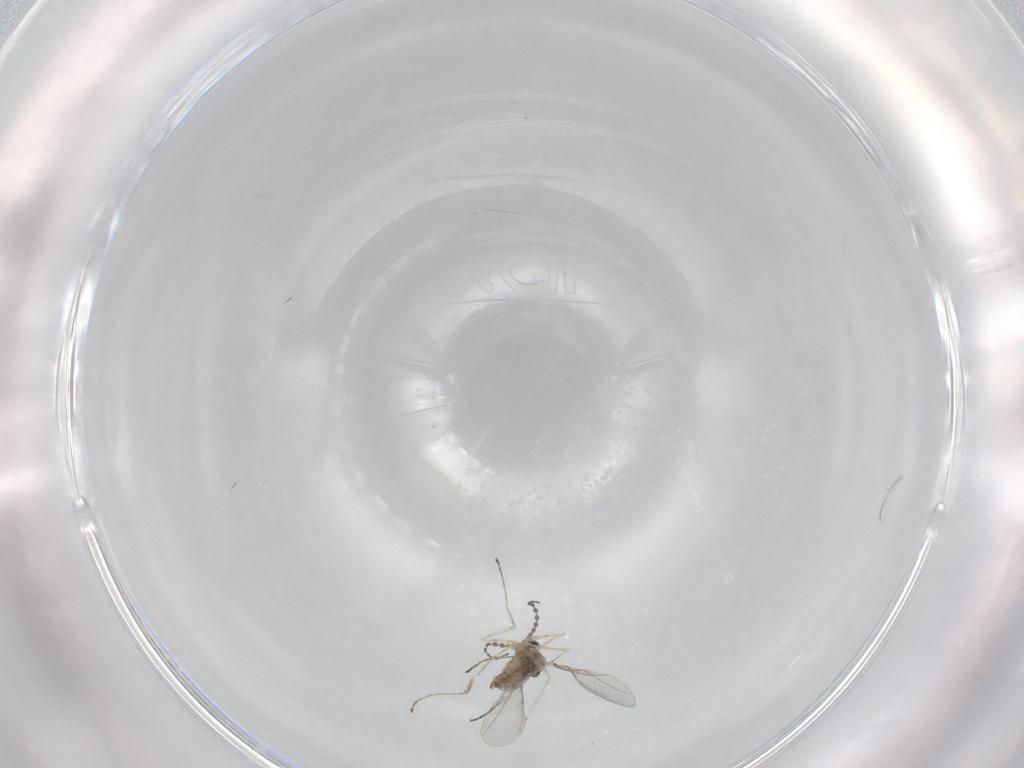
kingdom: Animalia
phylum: Arthropoda
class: Insecta
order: Diptera
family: Cecidomyiidae
